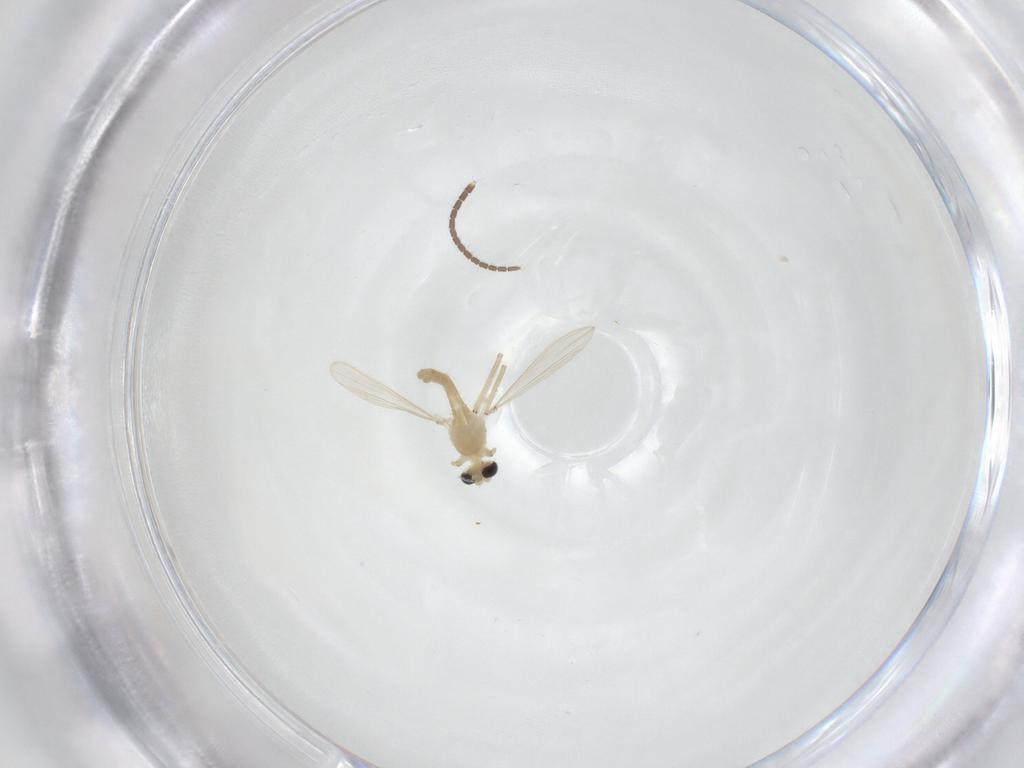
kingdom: Animalia
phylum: Arthropoda
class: Insecta
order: Diptera
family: Chironomidae
